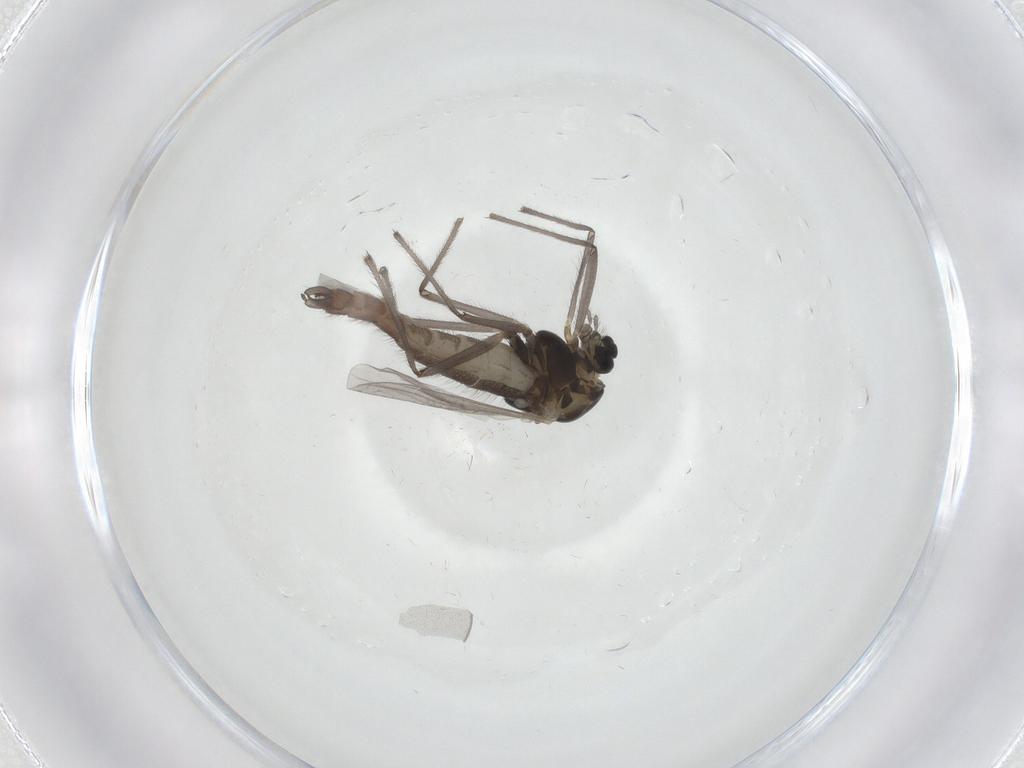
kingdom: Animalia
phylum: Arthropoda
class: Insecta
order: Diptera
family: Chironomidae
